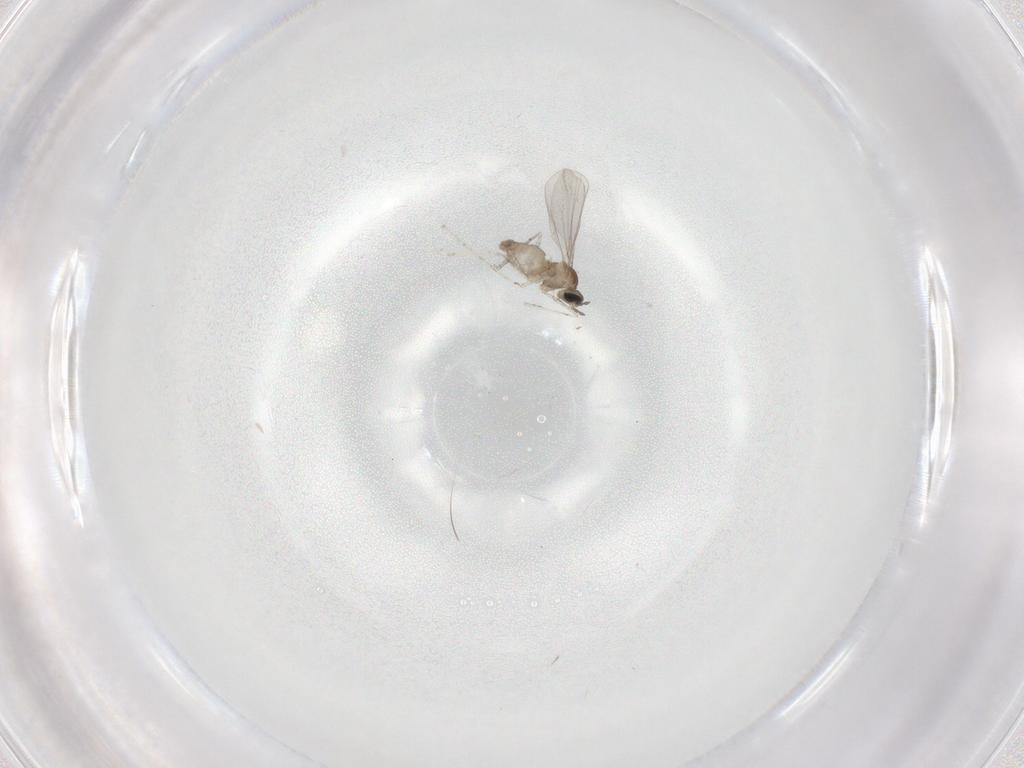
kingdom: Animalia
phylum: Arthropoda
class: Insecta
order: Diptera
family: Cecidomyiidae
